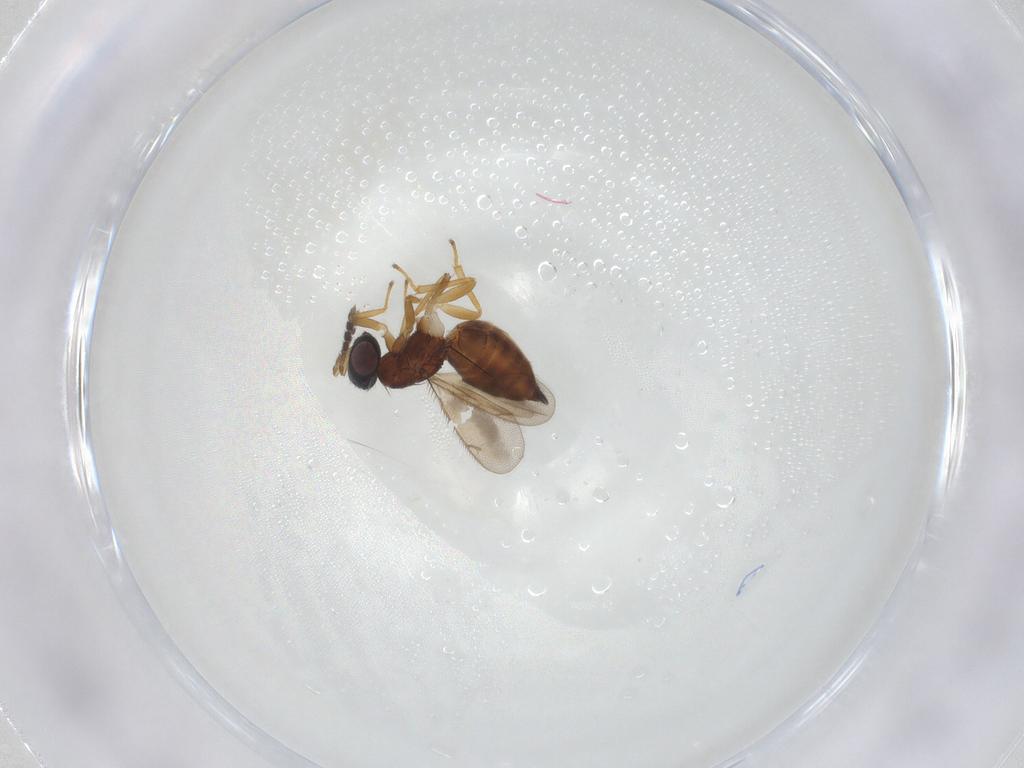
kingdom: Animalia
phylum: Arthropoda
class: Insecta
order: Hymenoptera
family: Eulophidae
